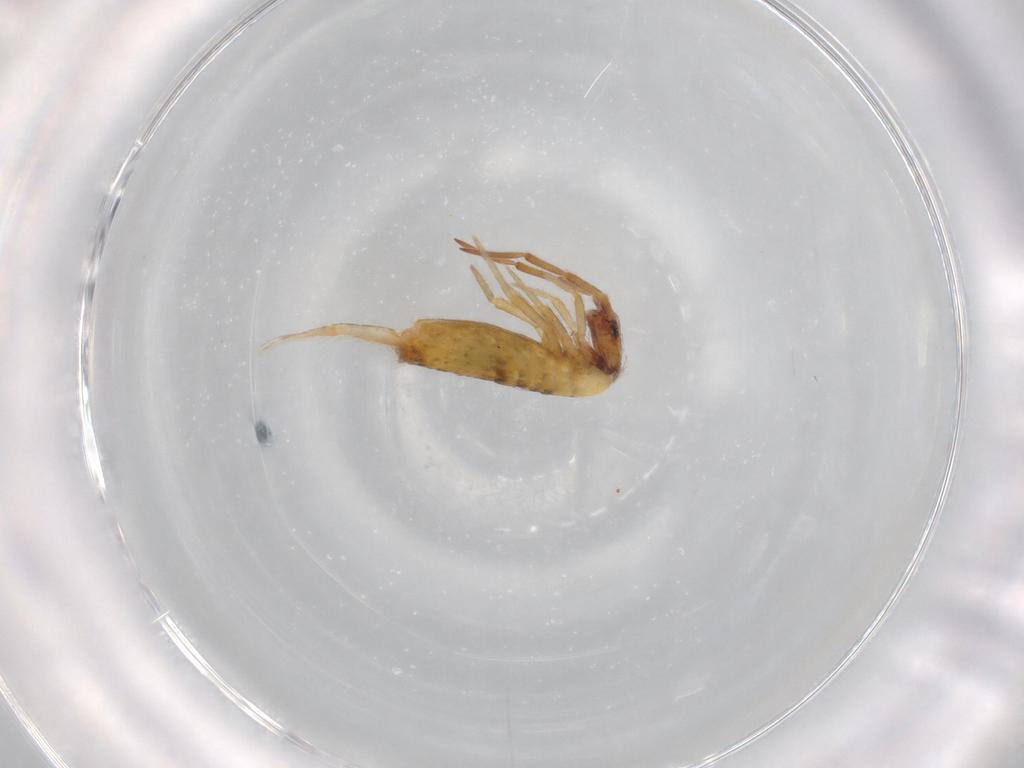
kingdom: Animalia
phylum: Arthropoda
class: Collembola
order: Entomobryomorpha
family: Entomobryidae
